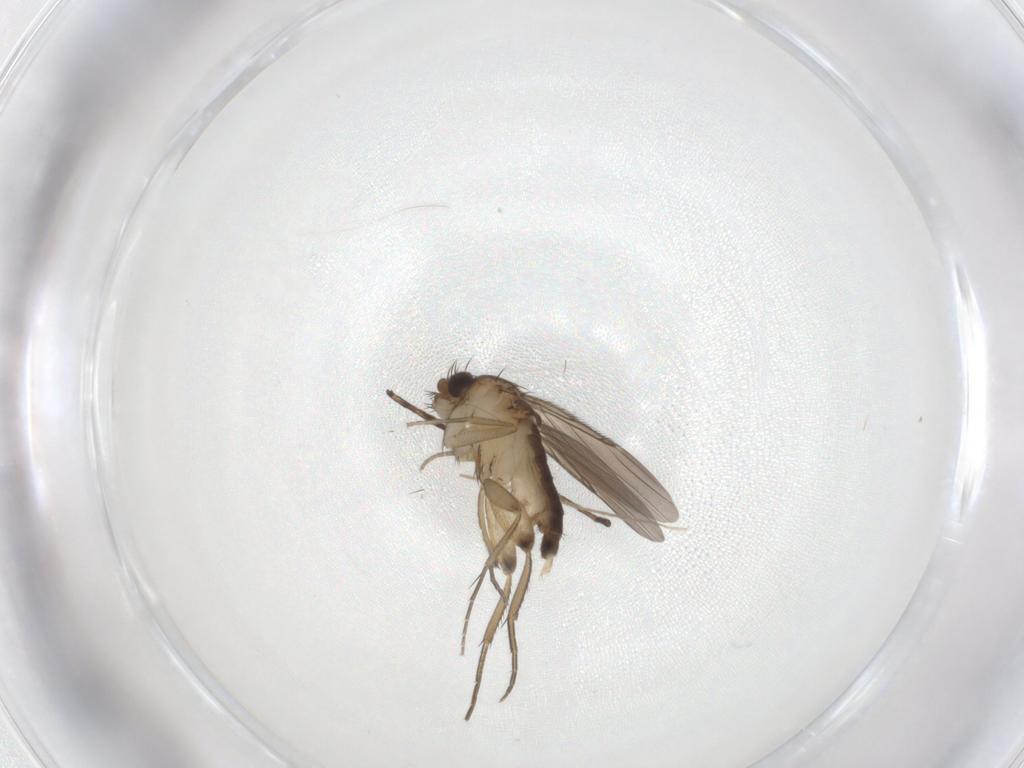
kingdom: Animalia
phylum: Arthropoda
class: Insecta
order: Diptera
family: Phoridae
